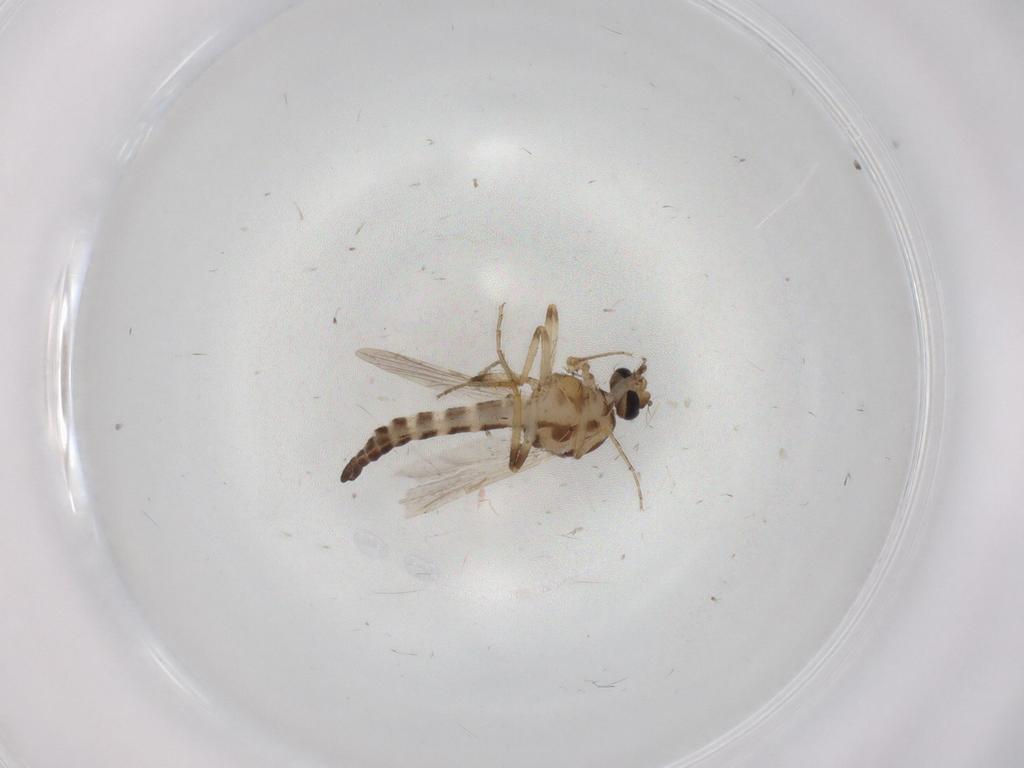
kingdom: Animalia
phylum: Arthropoda
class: Insecta
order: Diptera
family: Ceratopogonidae
